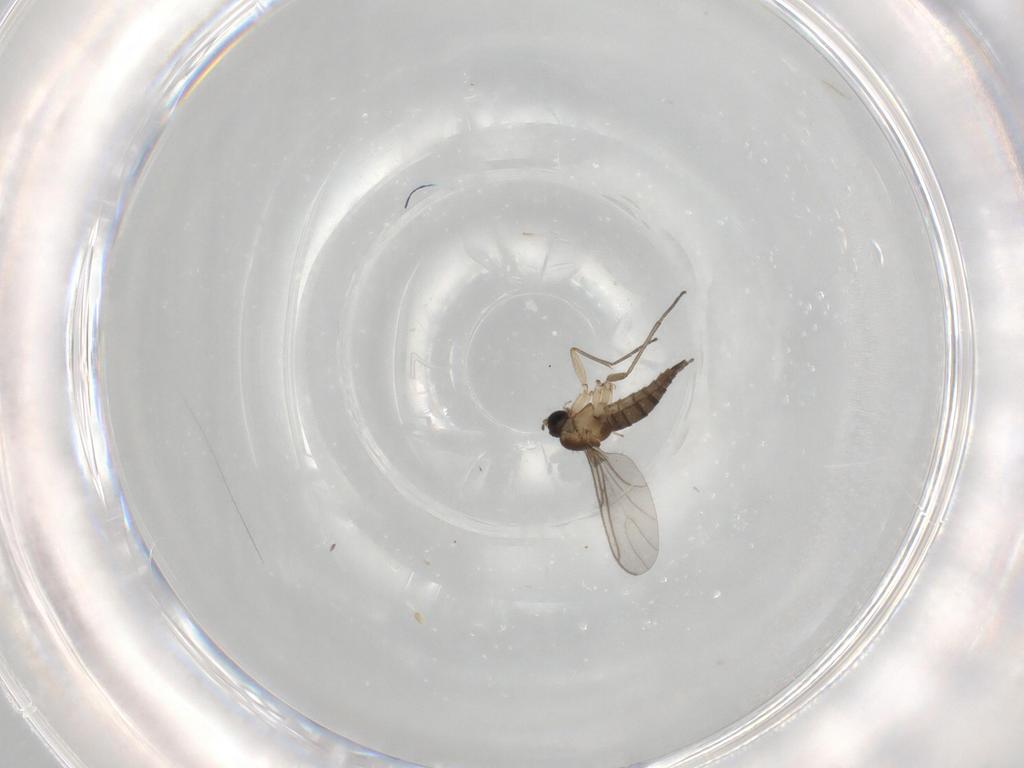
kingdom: Animalia
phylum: Arthropoda
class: Insecta
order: Diptera
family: Sciaridae
